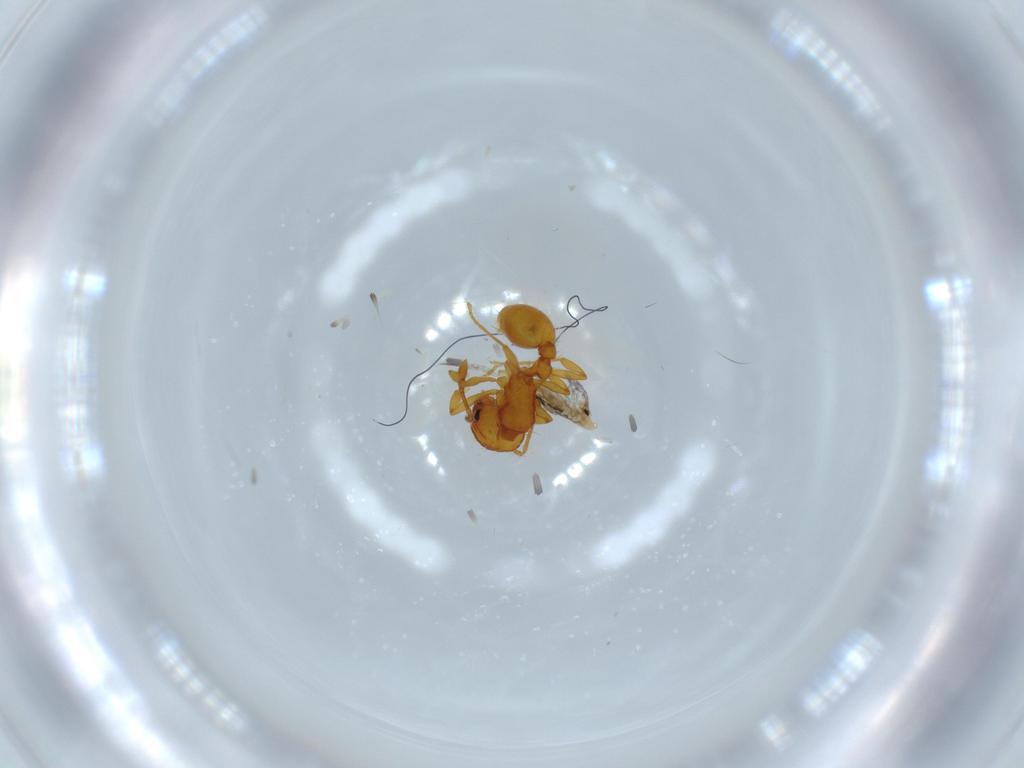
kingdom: Animalia
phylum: Arthropoda
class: Insecta
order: Hymenoptera
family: Formicidae
